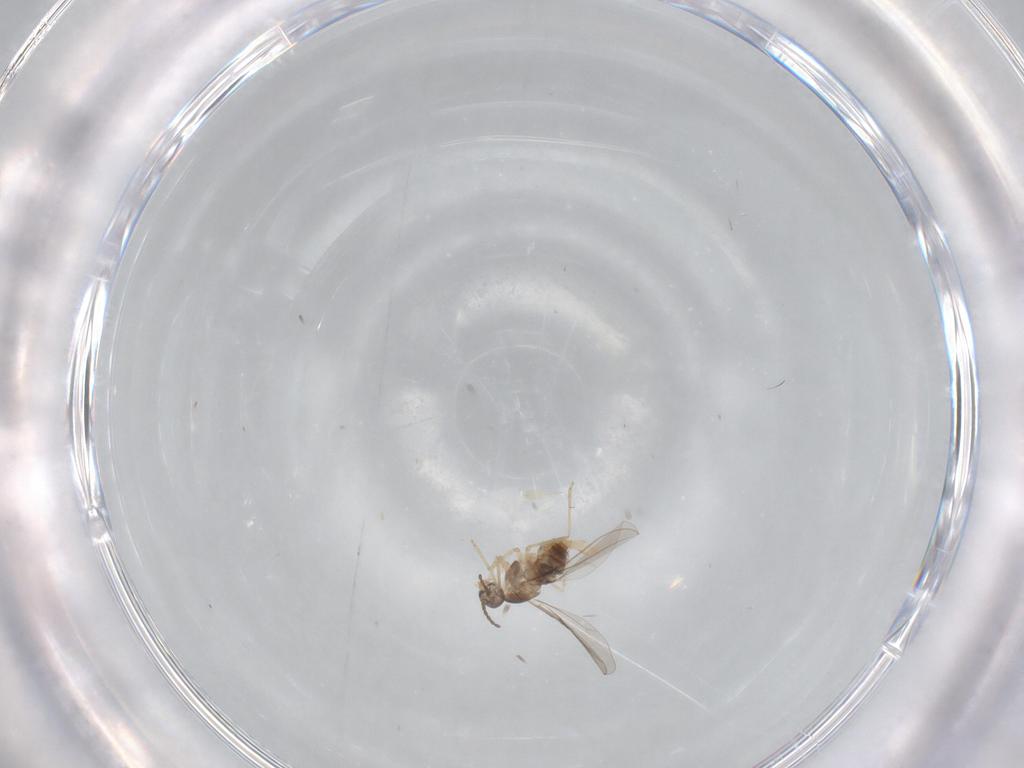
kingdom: Animalia
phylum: Arthropoda
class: Insecta
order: Diptera
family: Cecidomyiidae
